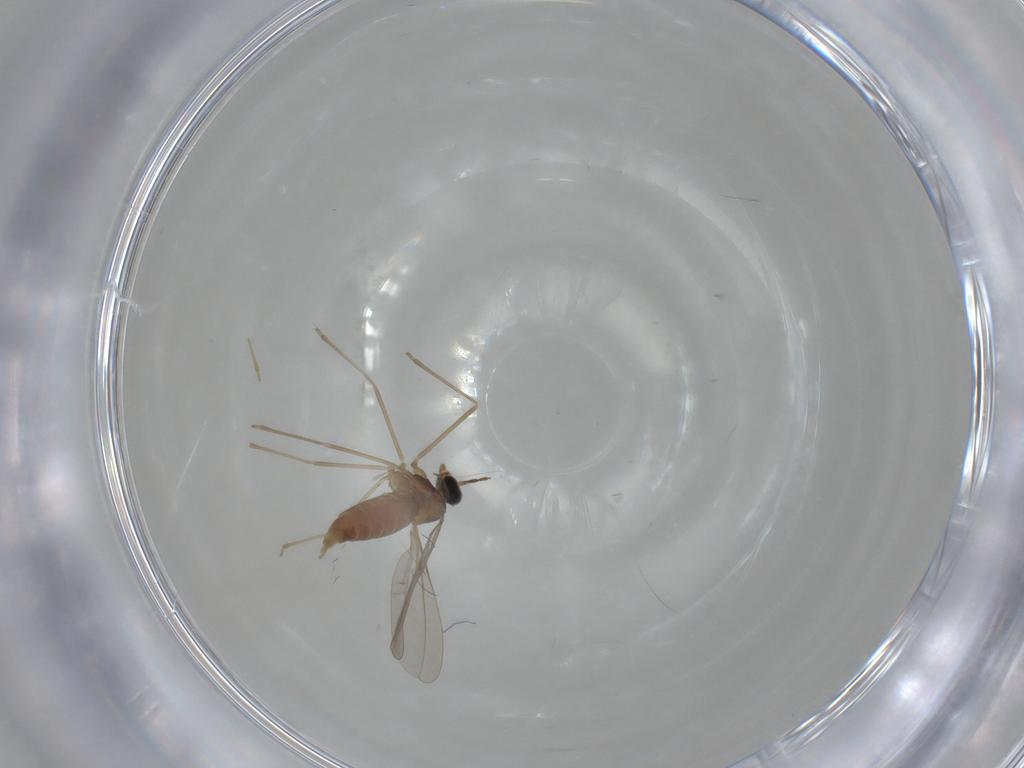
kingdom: Animalia
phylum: Arthropoda
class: Insecta
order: Diptera
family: Cecidomyiidae
